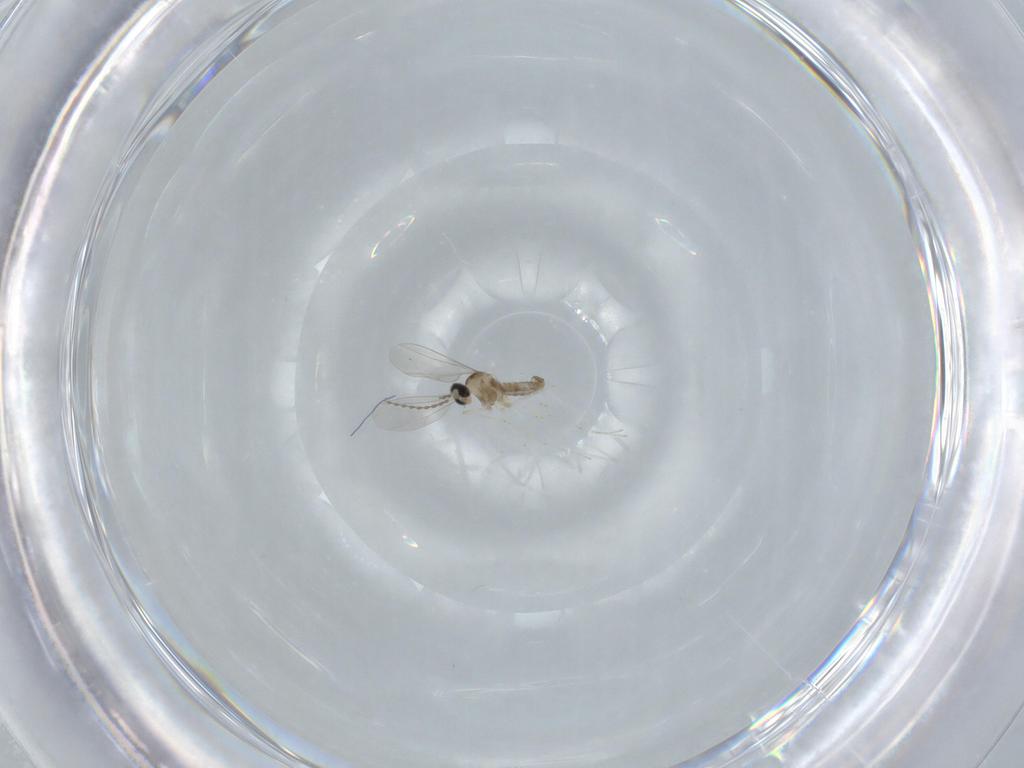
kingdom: Animalia
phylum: Arthropoda
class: Insecta
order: Diptera
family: Cecidomyiidae
